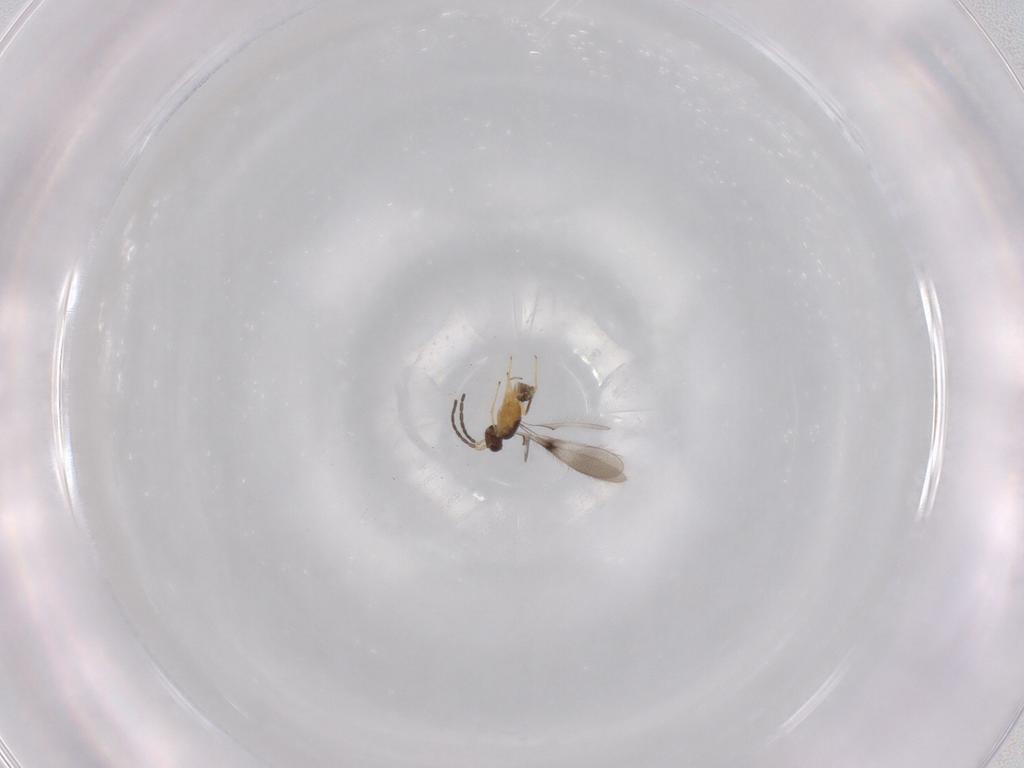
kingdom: Animalia
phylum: Arthropoda
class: Insecta
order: Hymenoptera
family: Mymaridae
